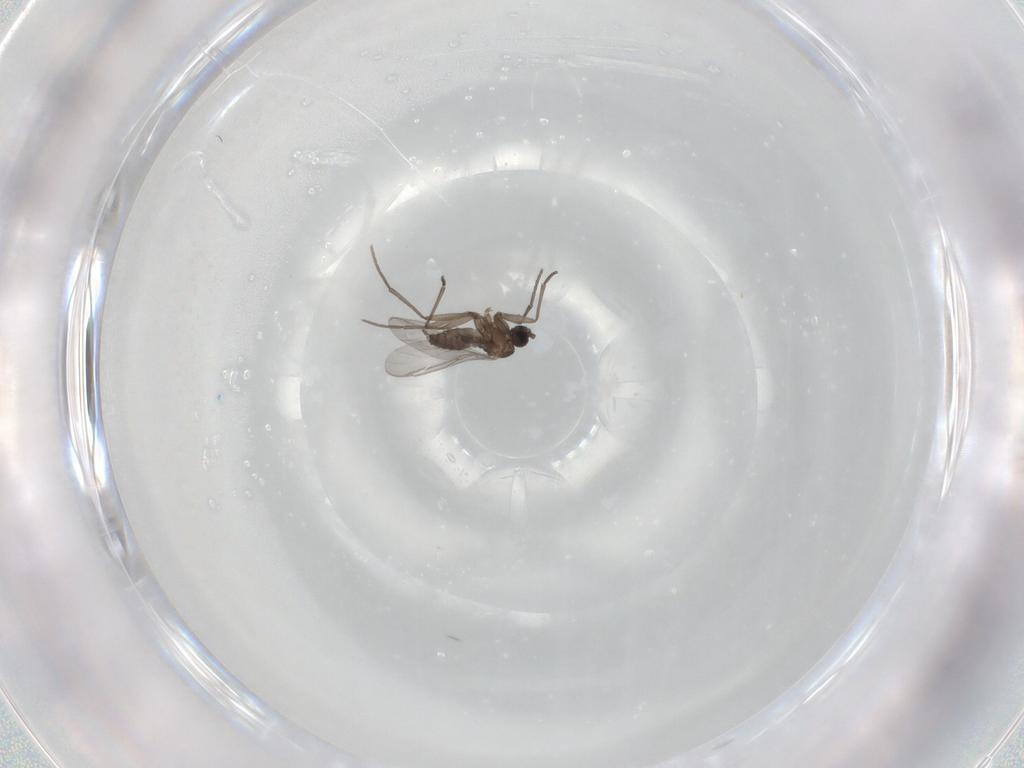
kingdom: Animalia
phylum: Arthropoda
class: Insecta
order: Diptera
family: Sciaridae
